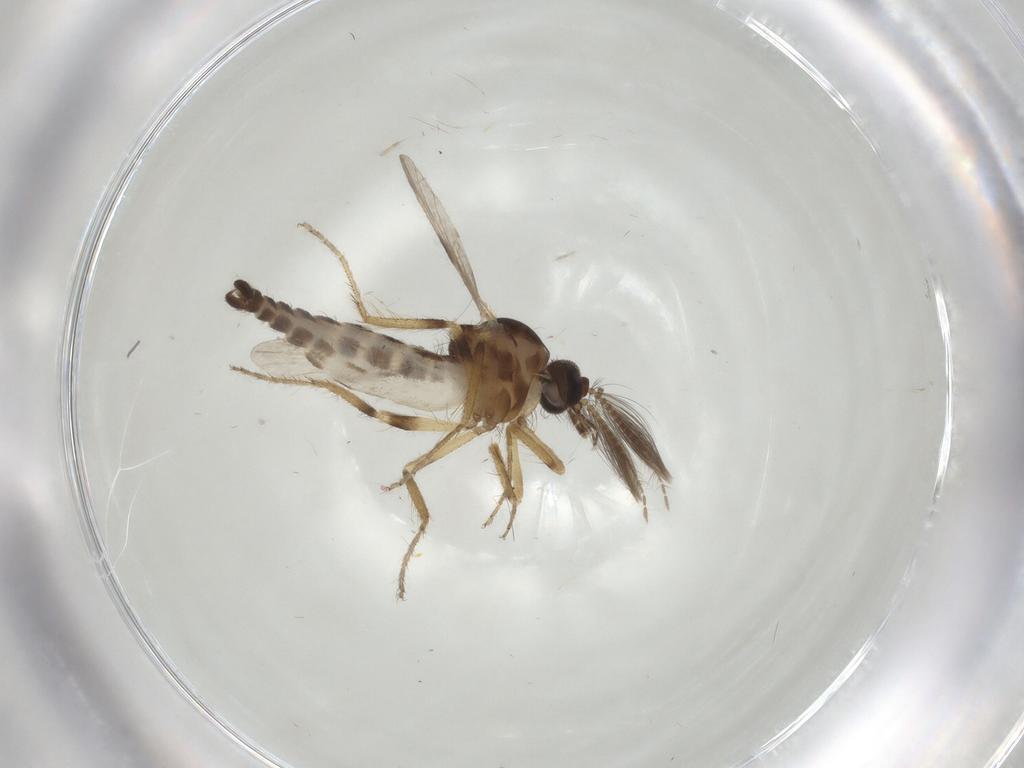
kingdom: Animalia
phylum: Arthropoda
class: Insecta
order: Diptera
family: Ceratopogonidae
